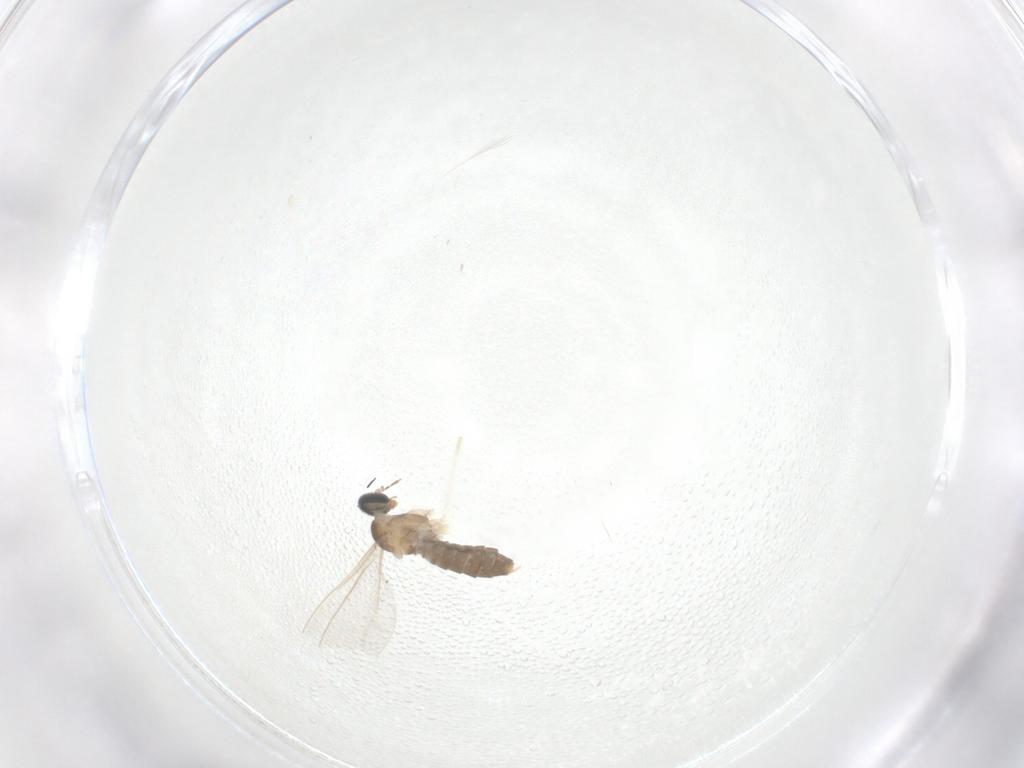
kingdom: Animalia
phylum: Arthropoda
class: Insecta
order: Diptera
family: Cecidomyiidae
